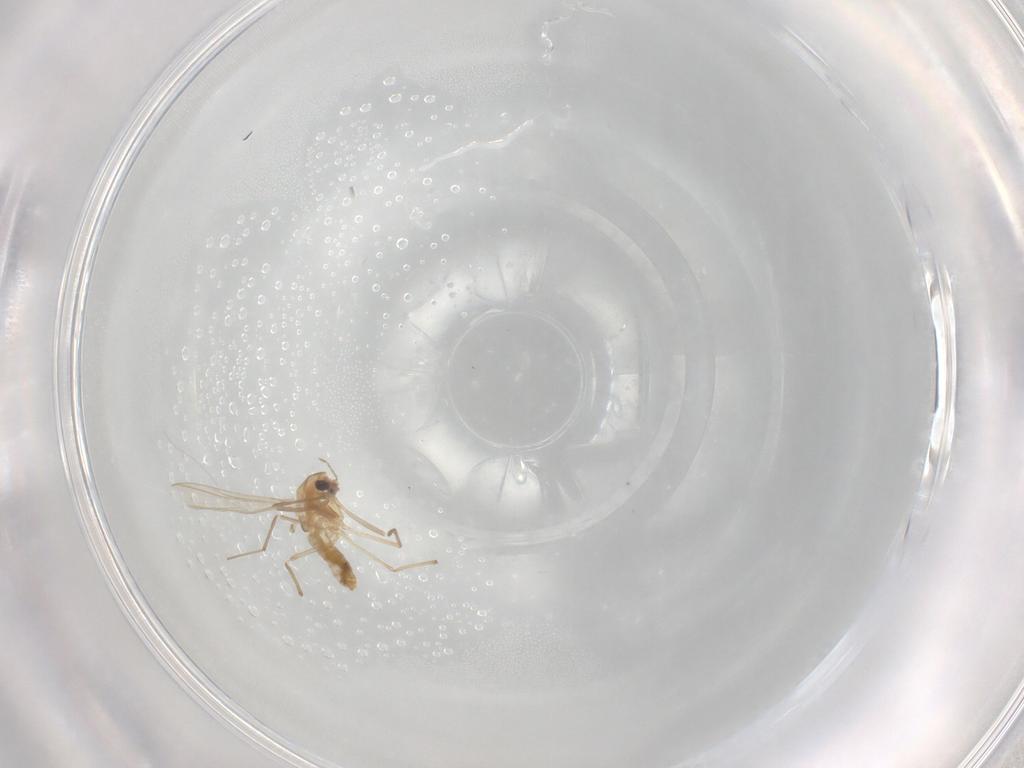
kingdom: Animalia
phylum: Arthropoda
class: Insecta
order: Diptera
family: Chironomidae
